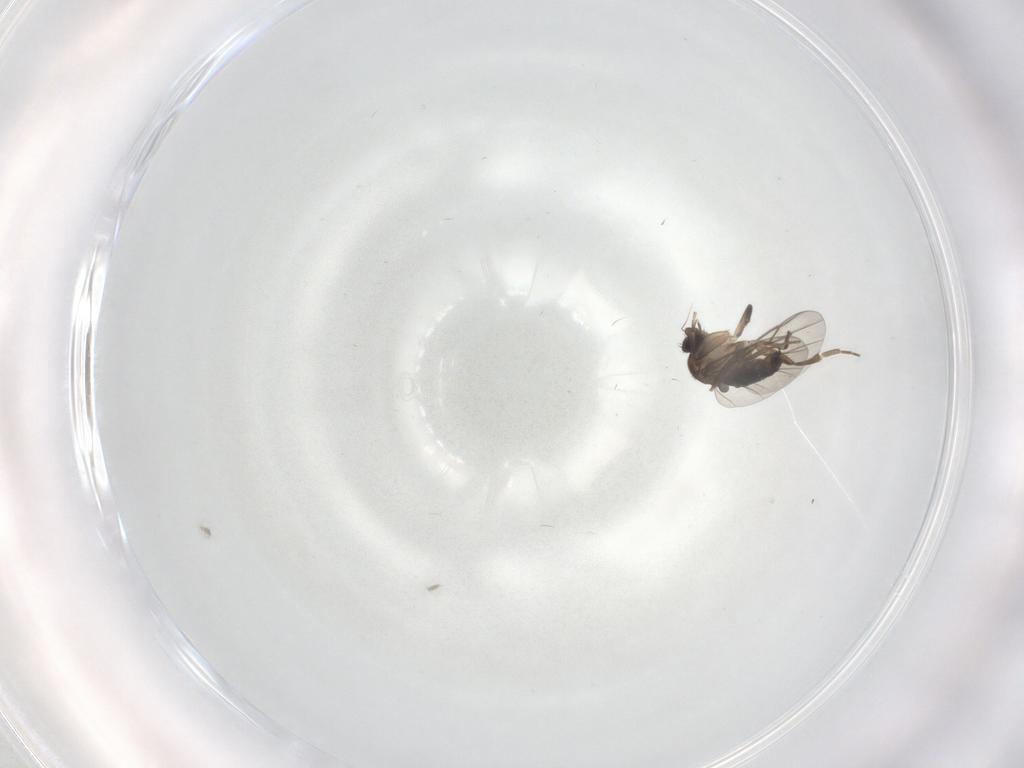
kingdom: Animalia
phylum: Arthropoda
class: Insecta
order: Diptera
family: Phoridae
